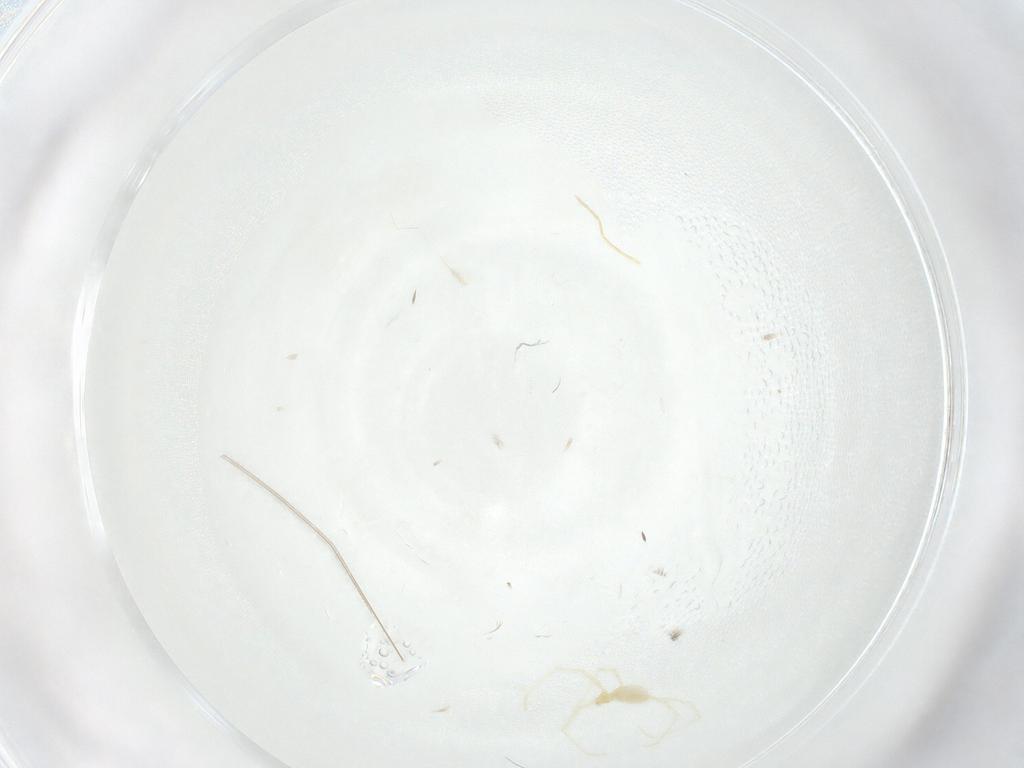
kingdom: Animalia
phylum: Arthropoda
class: Arachnida
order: Trombidiformes
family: Erythraeidae
